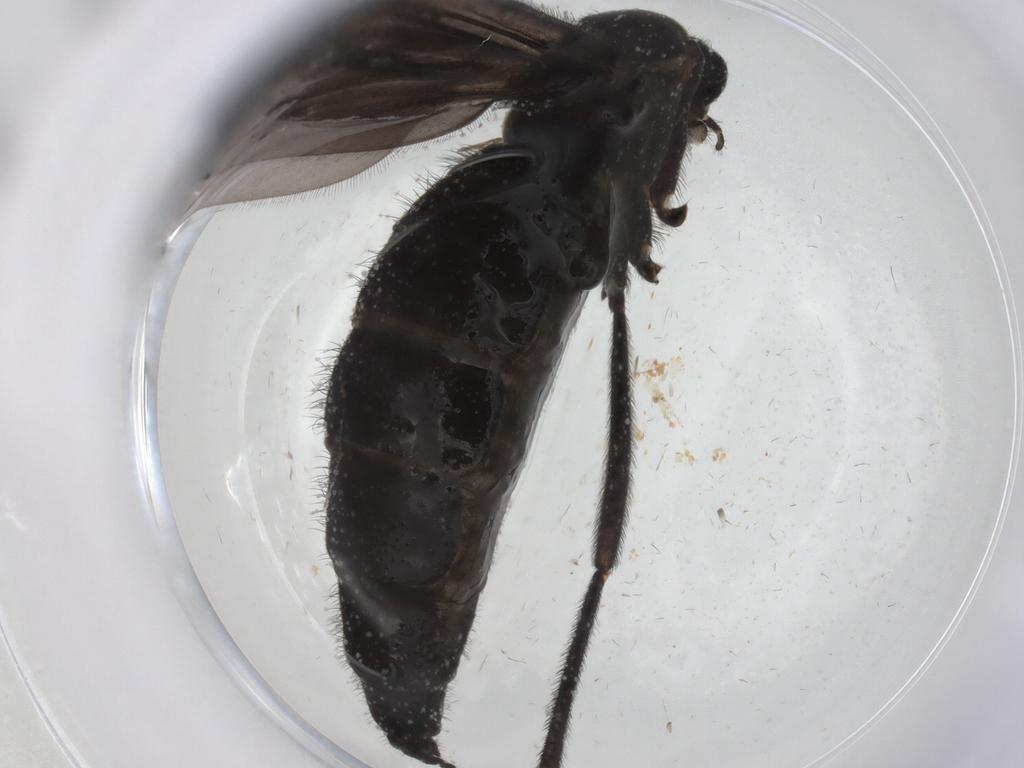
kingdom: Animalia
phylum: Arthropoda
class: Insecta
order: Diptera
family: Sciaridae
